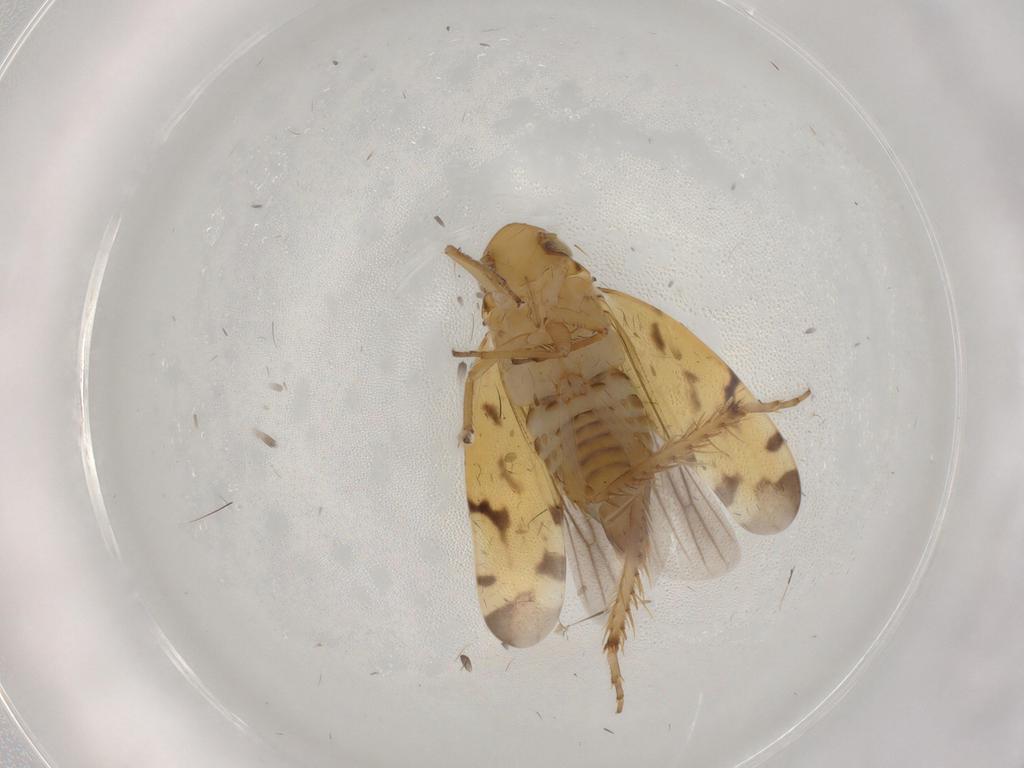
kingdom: Animalia
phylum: Arthropoda
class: Insecta
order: Hemiptera
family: Cicadellidae
